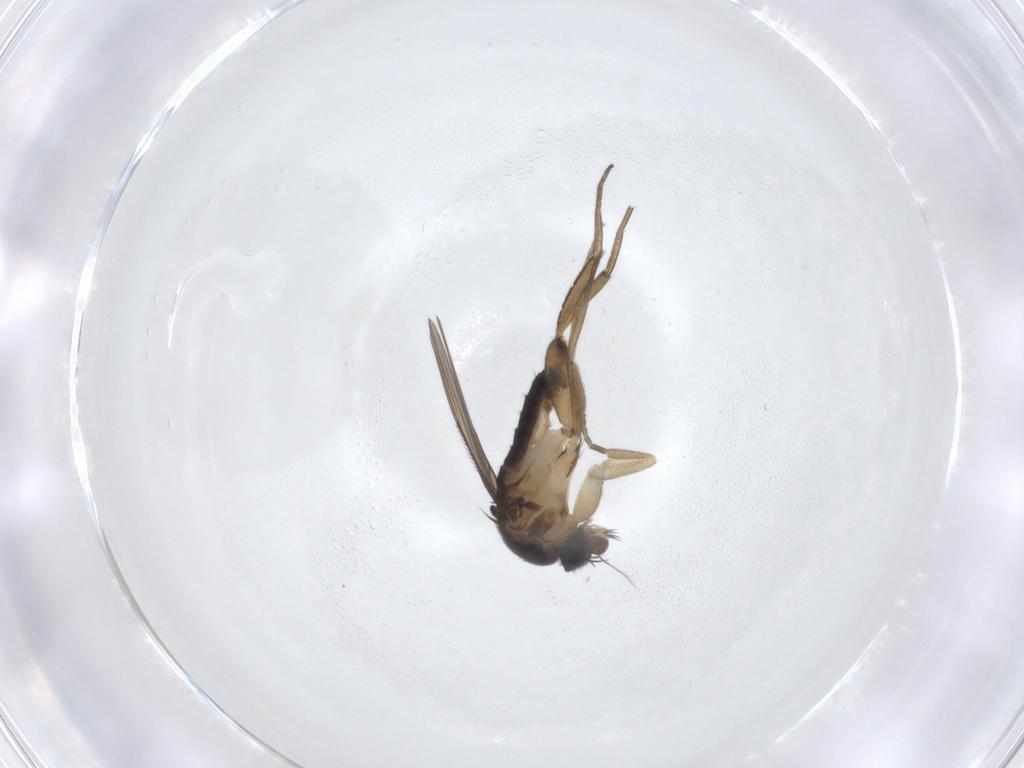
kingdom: Animalia
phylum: Arthropoda
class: Insecta
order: Diptera
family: Phoridae
